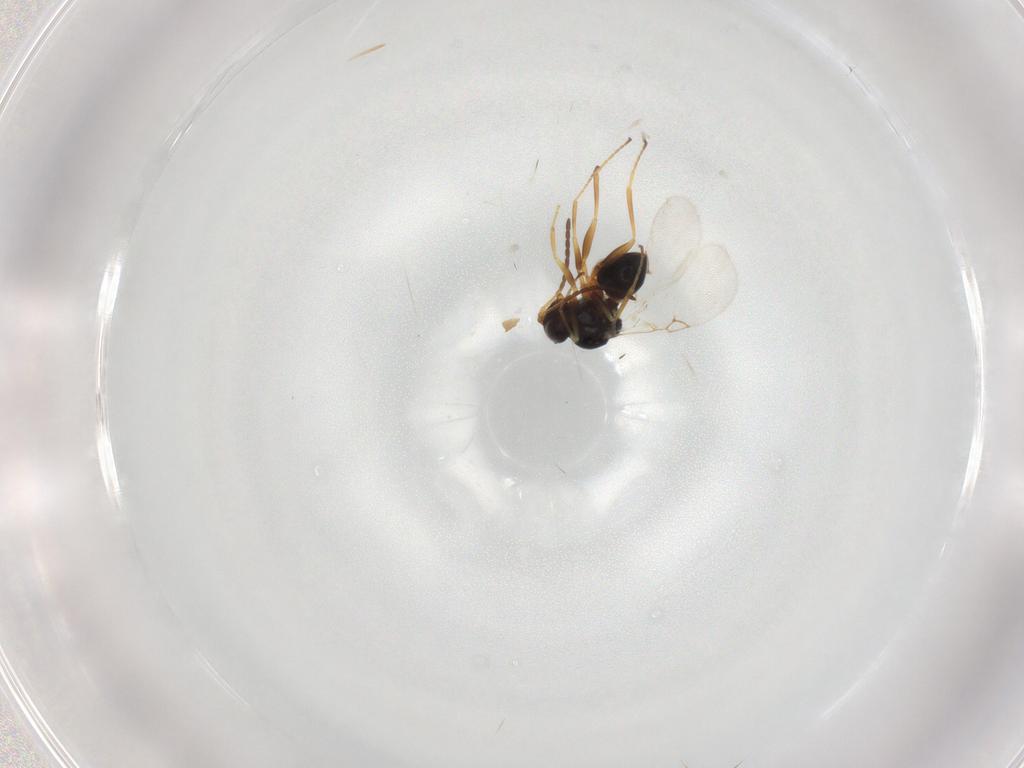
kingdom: Animalia
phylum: Arthropoda
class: Insecta
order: Hymenoptera
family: Figitidae
